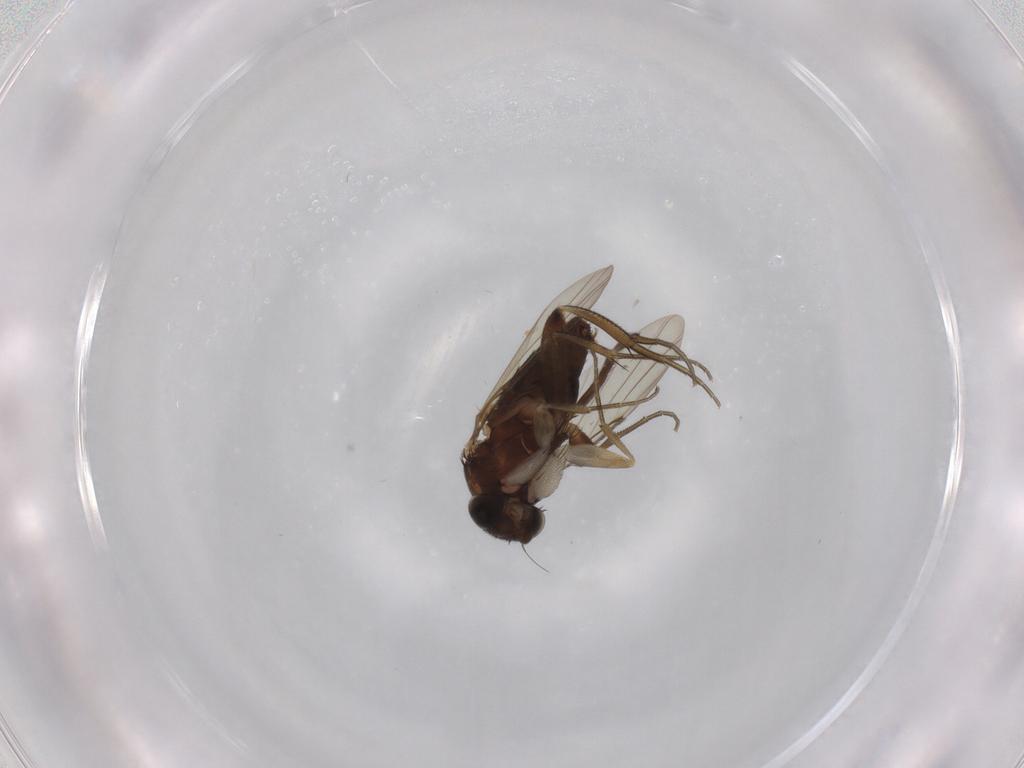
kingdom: Animalia
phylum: Arthropoda
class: Insecta
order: Diptera
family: Phoridae
